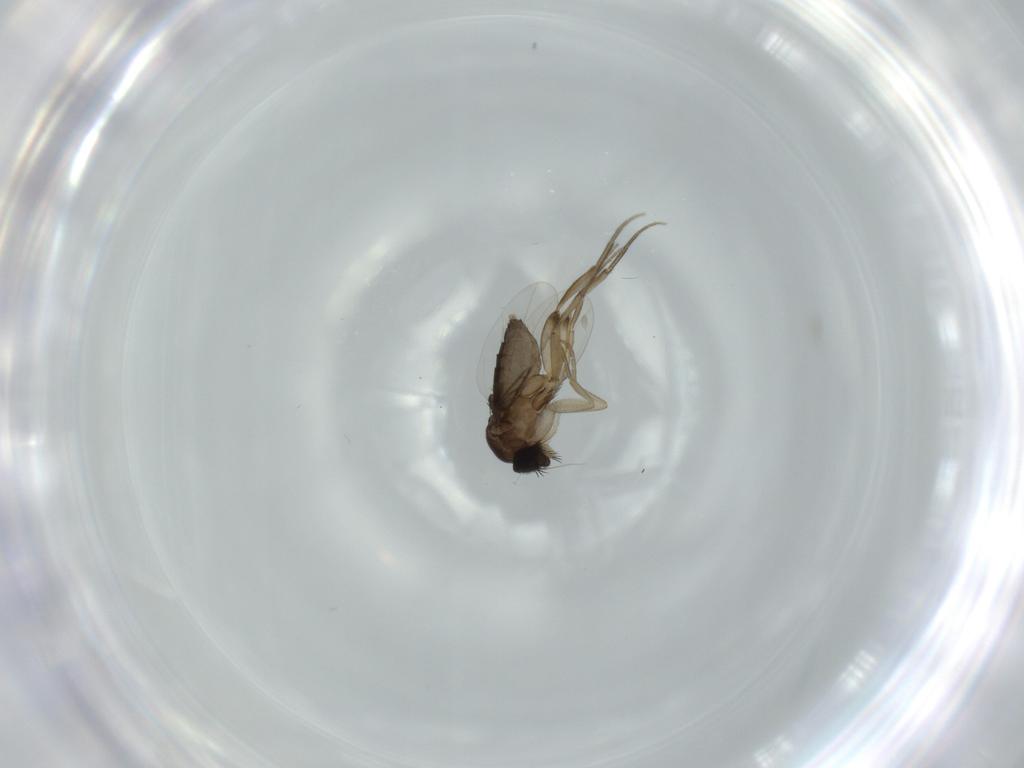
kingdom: Animalia
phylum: Arthropoda
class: Insecta
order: Diptera
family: Phoridae
